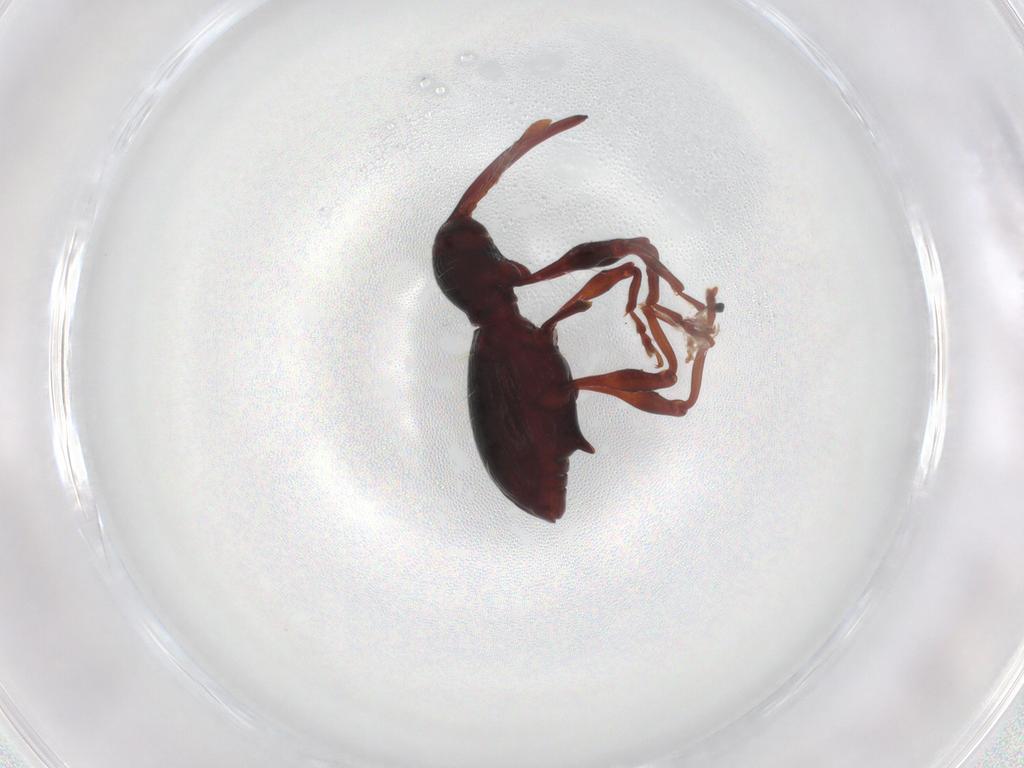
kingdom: Animalia
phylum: Arthropoda
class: Insecta
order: Coleoptera
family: Curculionidae
